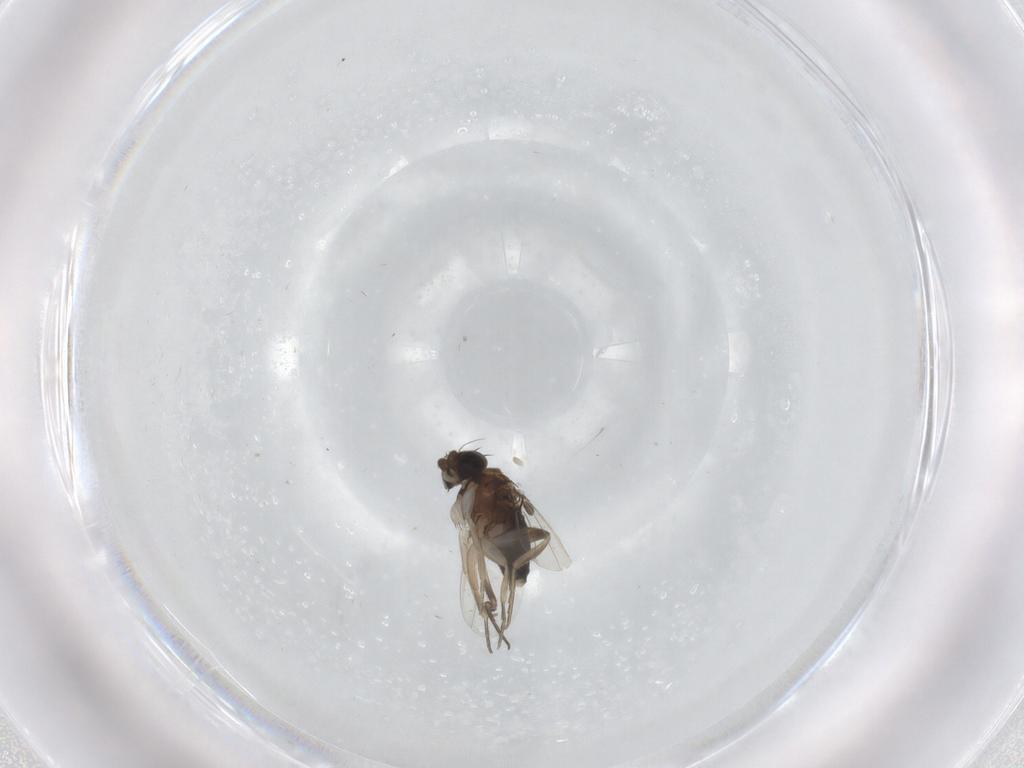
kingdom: Animalia
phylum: Arthropoda
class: Insecta
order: Diptera
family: Phoridae
